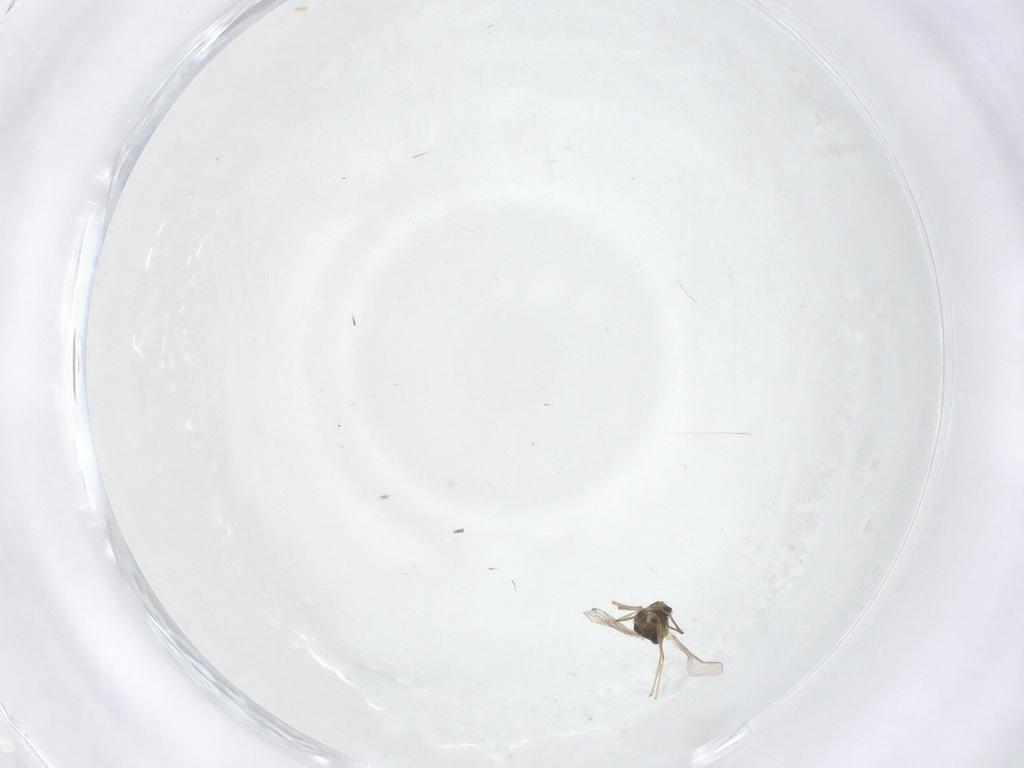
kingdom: Animalia
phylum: Arthropoda
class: Insecta
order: Diptera
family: Chironomidae
